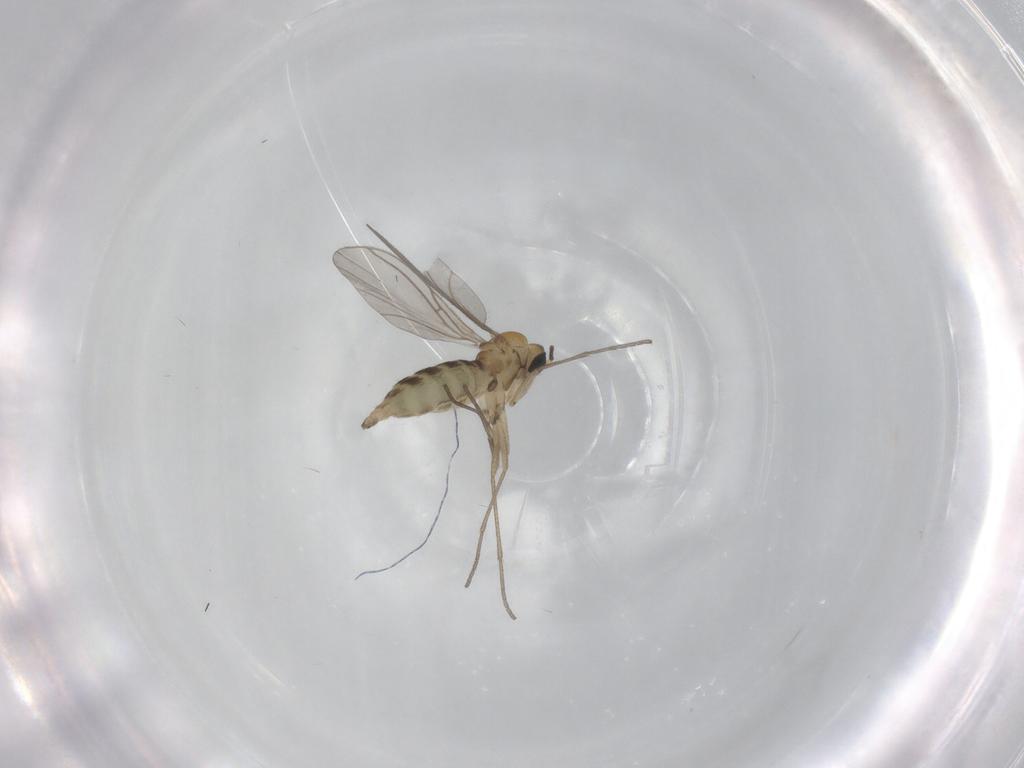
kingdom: Animalia
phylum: Arthropoda
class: Insecta
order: Diptera
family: Sciaridae
